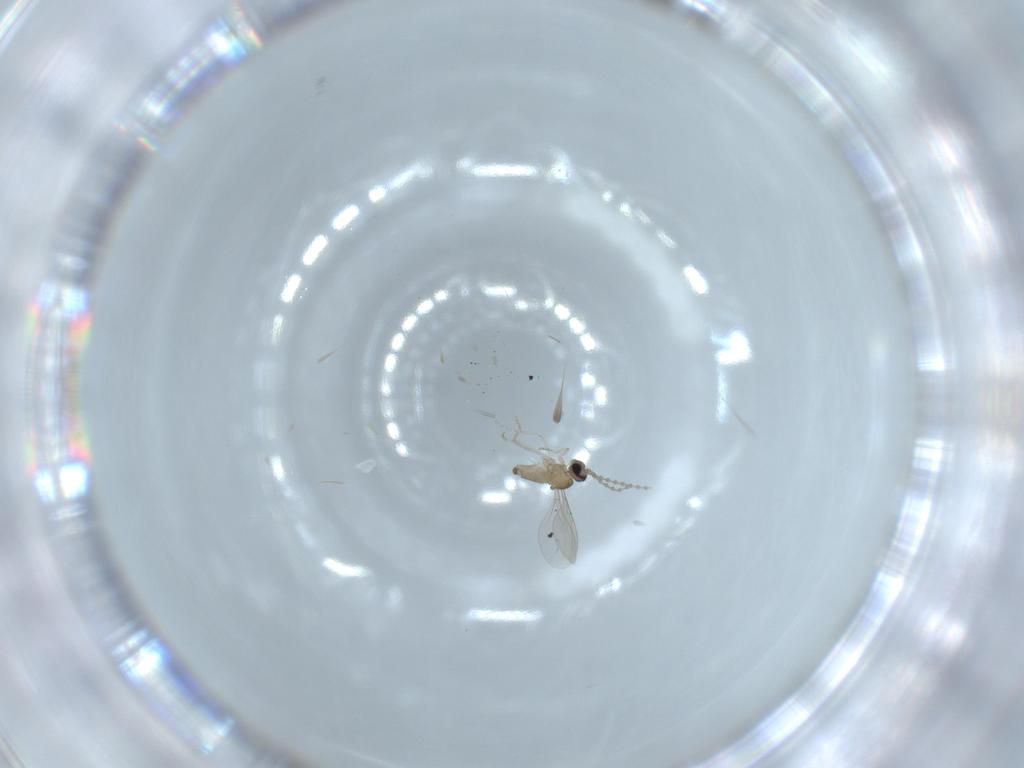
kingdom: Animalia
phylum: Arthropoda
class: Insecta
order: Diptera
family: Cecidomyiidae
